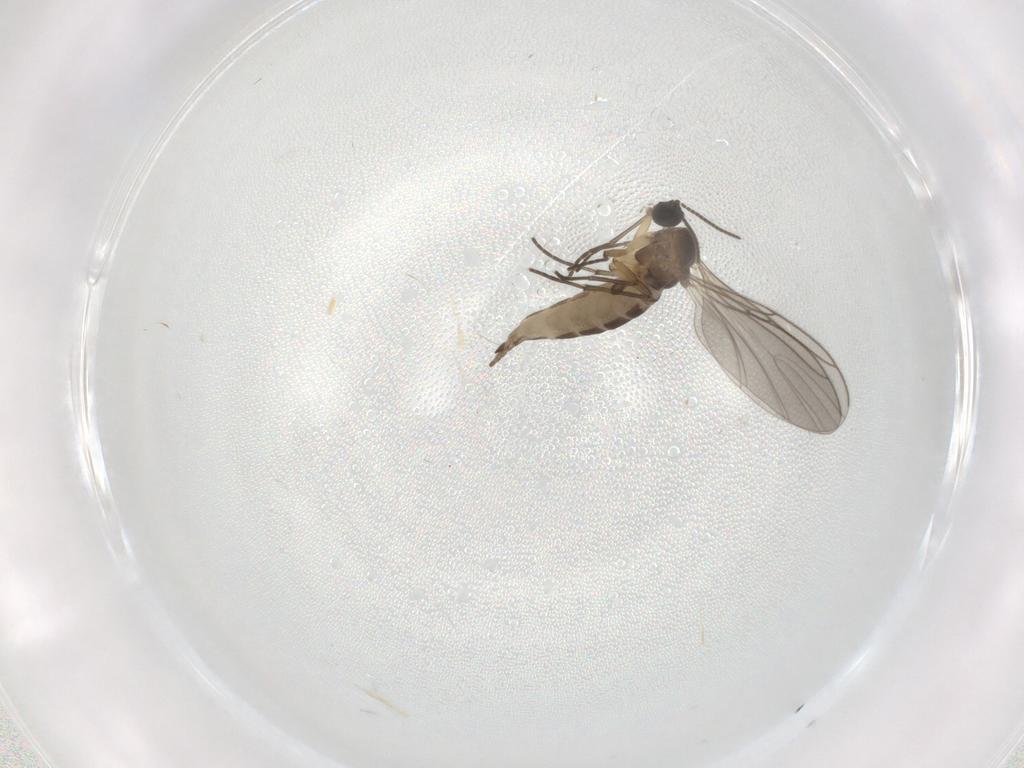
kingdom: Animalia
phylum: Arthropoda
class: Insecta
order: Diptera
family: Sciaridae
